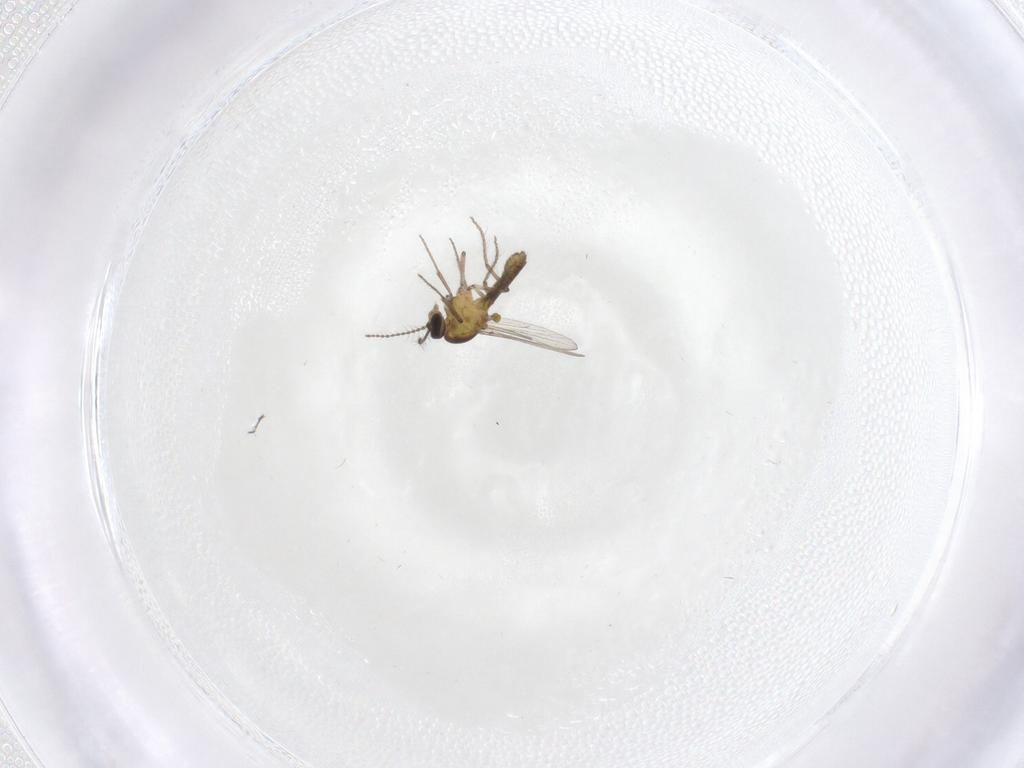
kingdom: Animalia
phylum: Arthropoda
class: Insecta
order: Diptera
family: Ceratopogonidae
